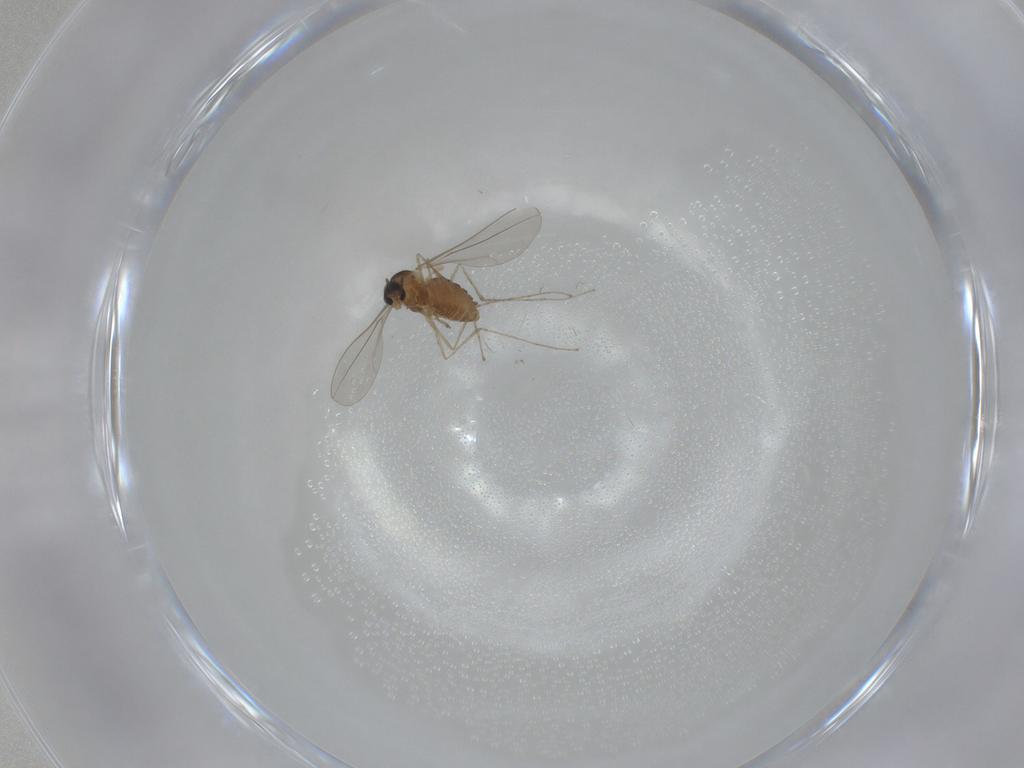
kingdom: Animalia
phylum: Arthropoda
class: Insecta
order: Diptera
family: Cecidomyiidae
